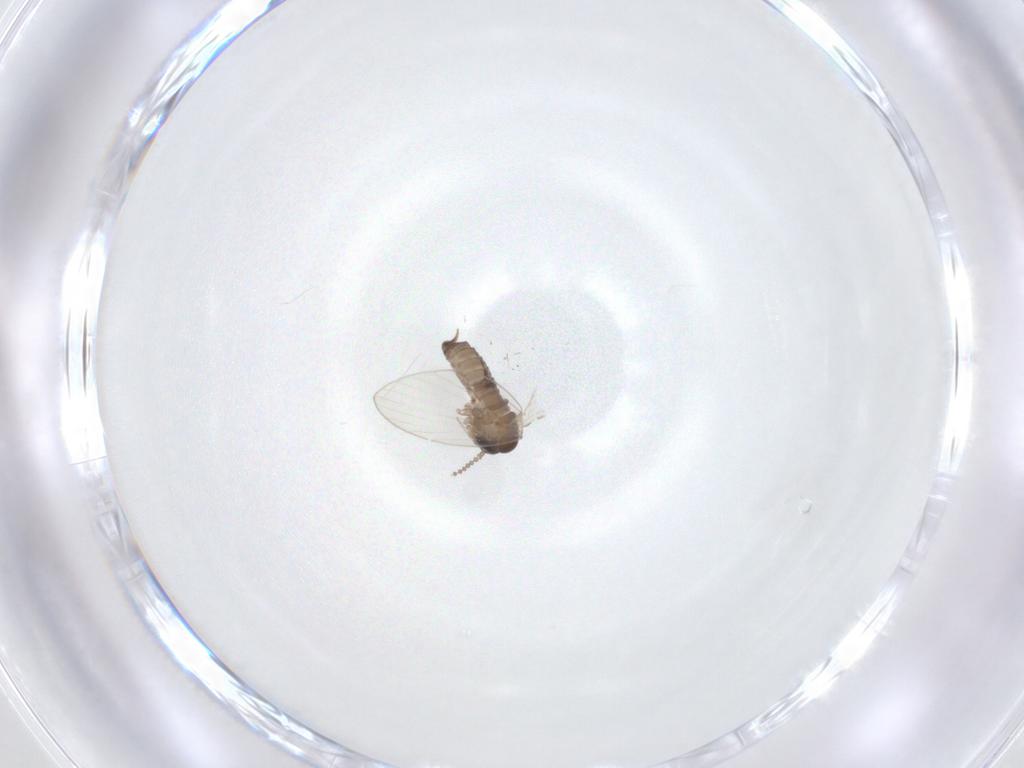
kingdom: Animalia
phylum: Arthropoda
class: Insecta
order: Diptera
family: Psychodidae
